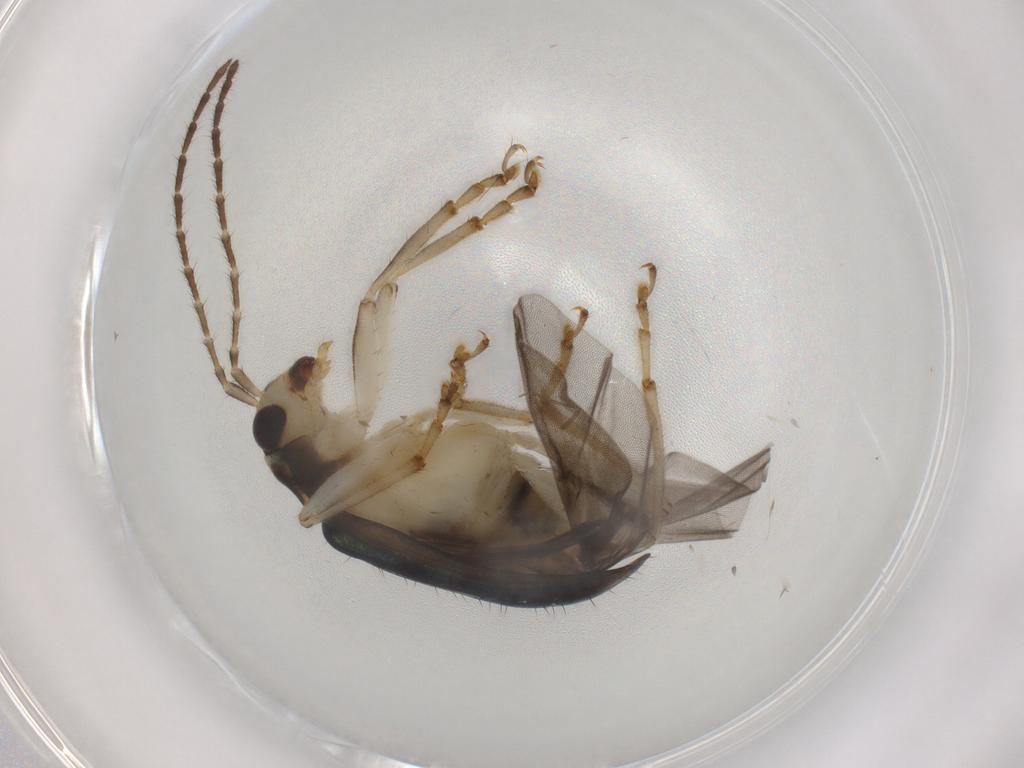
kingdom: Animalia
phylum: Arthropoda
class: Insecta
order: Coleoptera
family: Chrysomelidae
